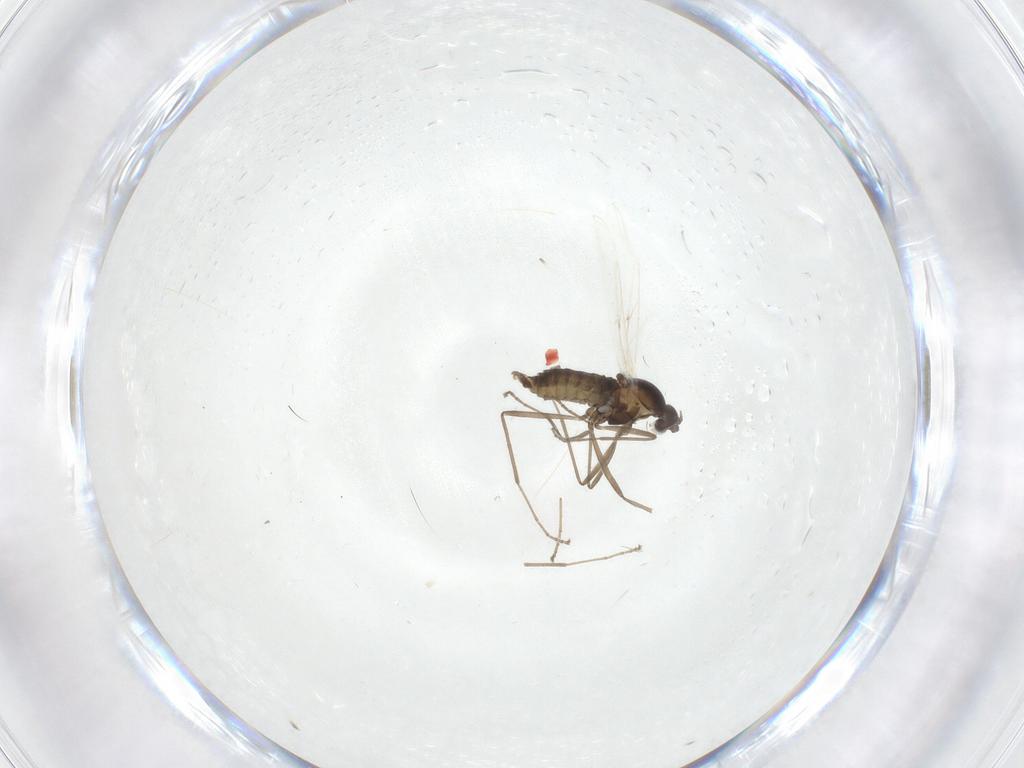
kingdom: Animalia
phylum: Arthropoda
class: Insecta
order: Diptera
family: Cecidomyiidae
